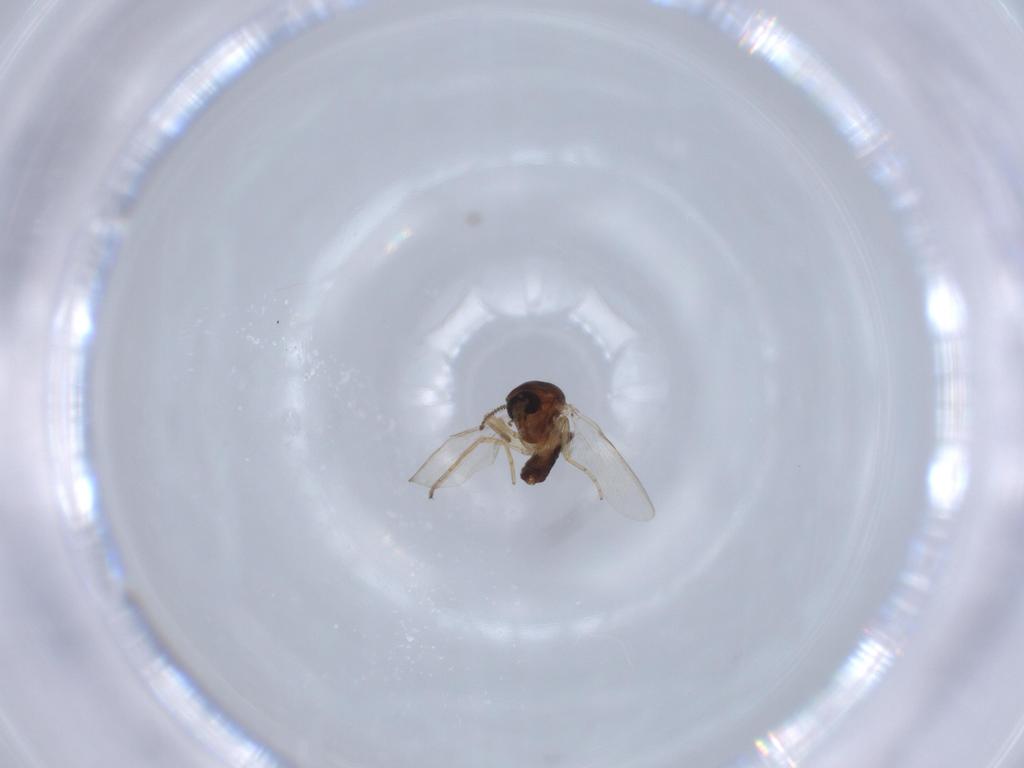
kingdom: Animalia
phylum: Arthropoda
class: Insecta
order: Diptera
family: Ceratopogonidae
